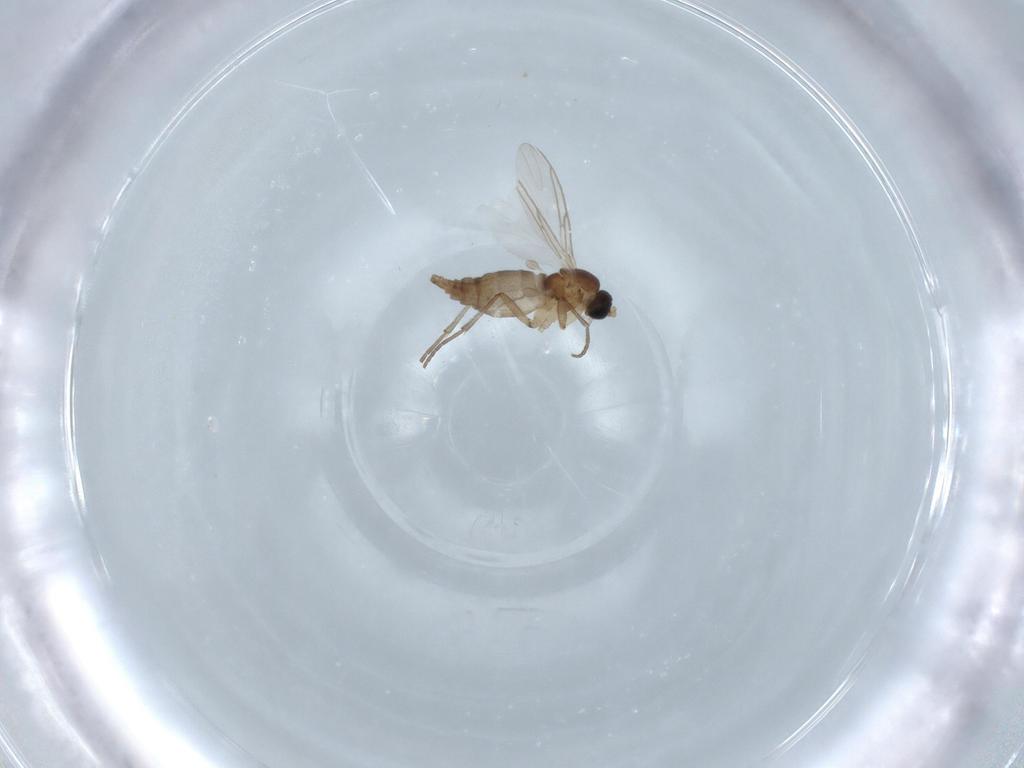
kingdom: Animalia
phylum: Arthropoda
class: Insecta
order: Diptera
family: Sciaridae
